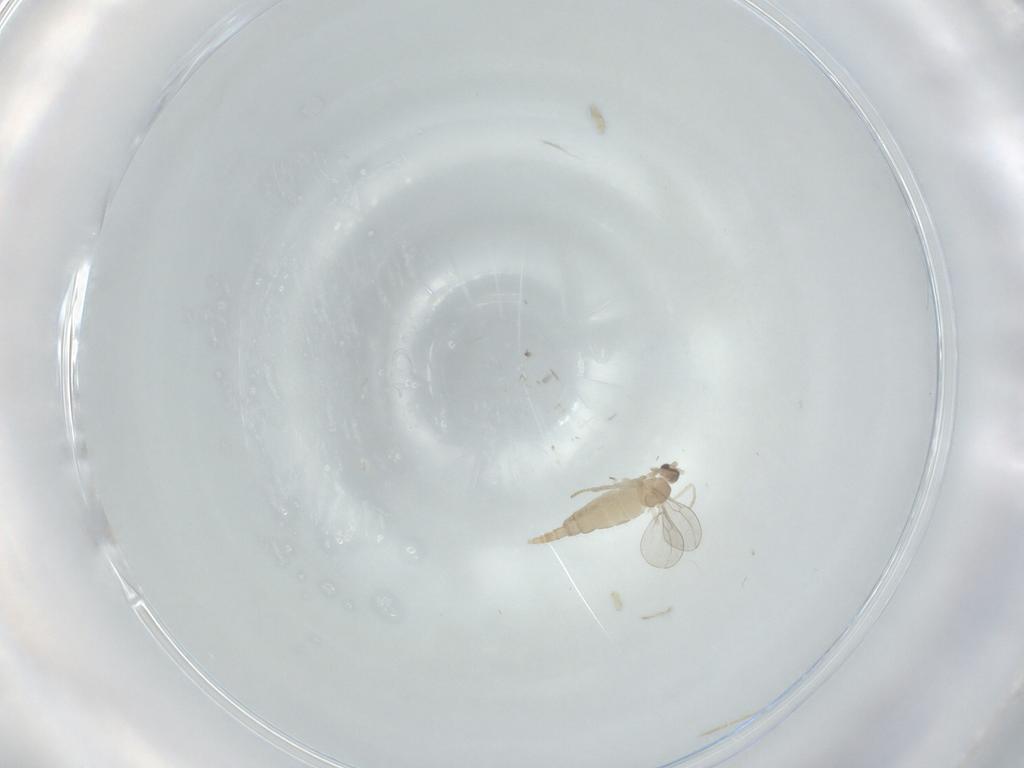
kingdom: Animalia
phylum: Arthropoda
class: Insecta
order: Diptera
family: Cecidomyiidae
